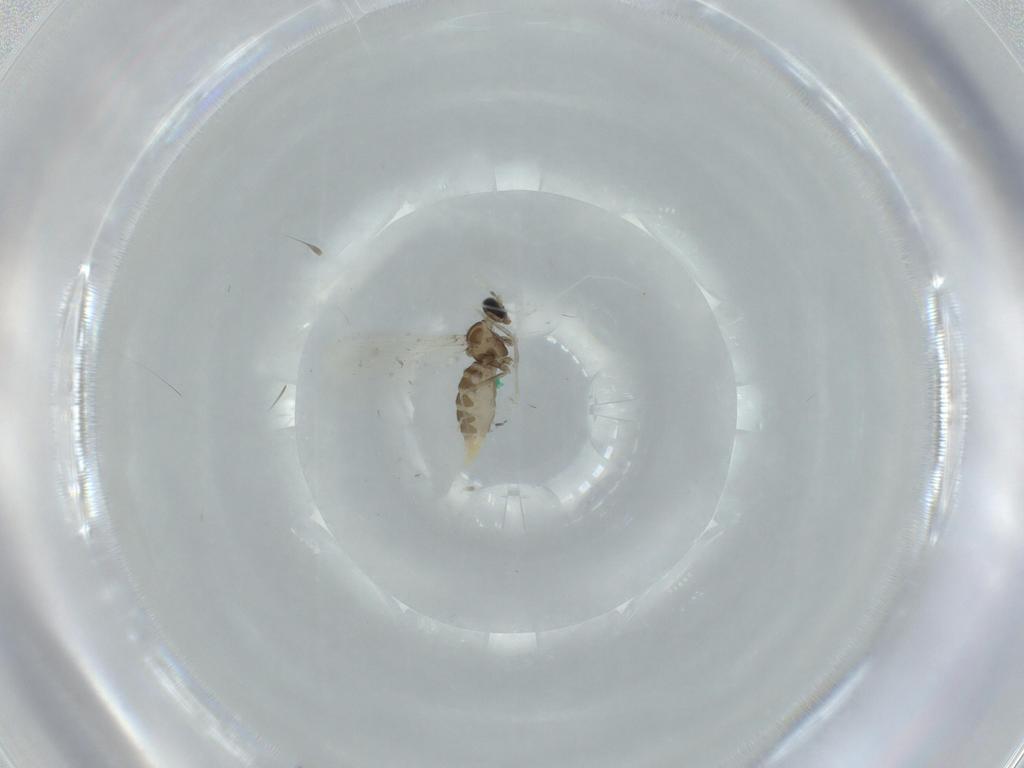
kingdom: Animalia
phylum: Arthropoda
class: Insecta
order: Diptera
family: Cecidomyiidae
